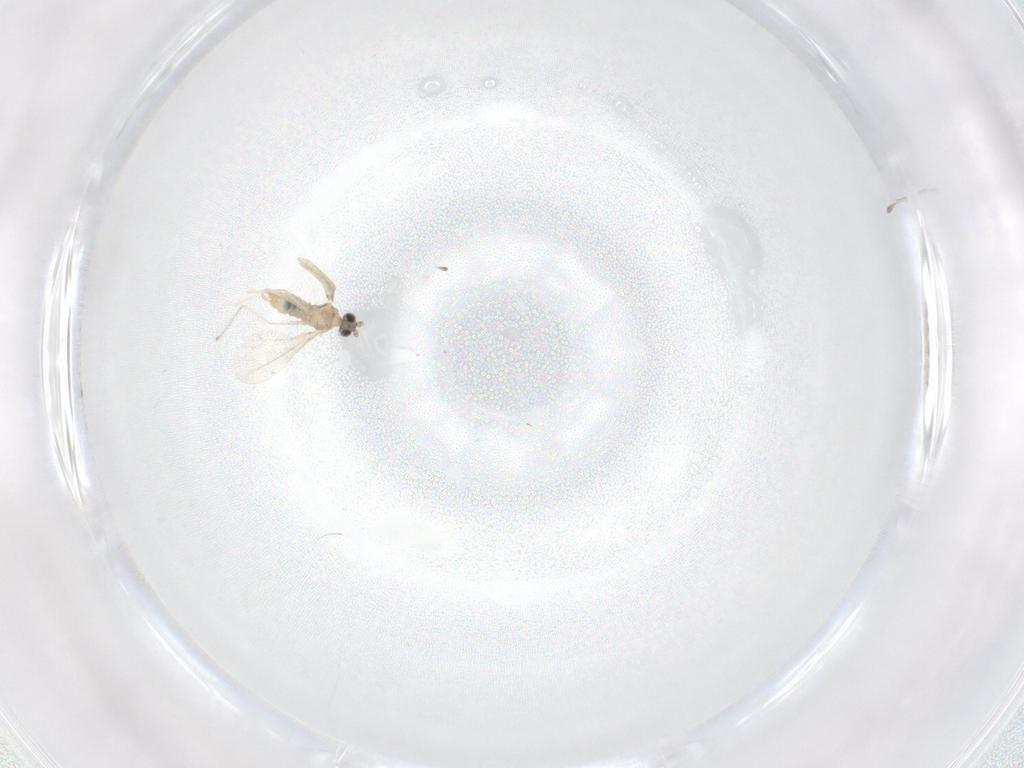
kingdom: Animalia
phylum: Arthropoda
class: Insecta
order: Diptera
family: Cecidomyiidae
